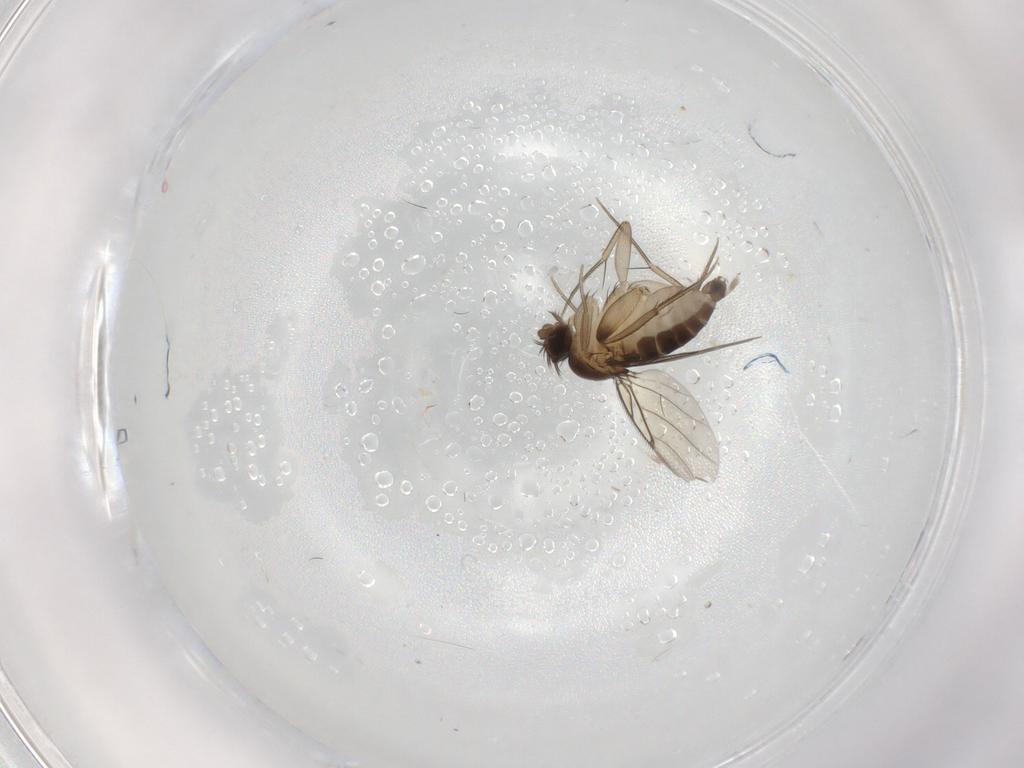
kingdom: Animalia
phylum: Arthropoda
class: Insecta
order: Diptera
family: Phoridae
